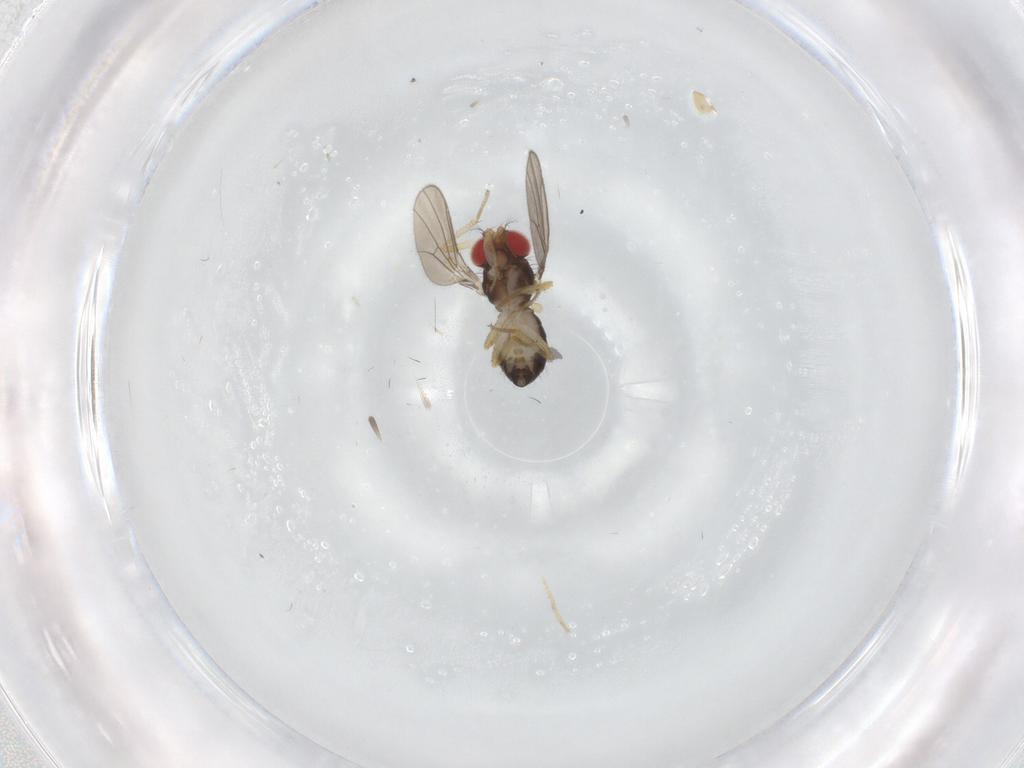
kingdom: Animalia
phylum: Arthropoda
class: Insecta
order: Diptera
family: Drosophilidae
